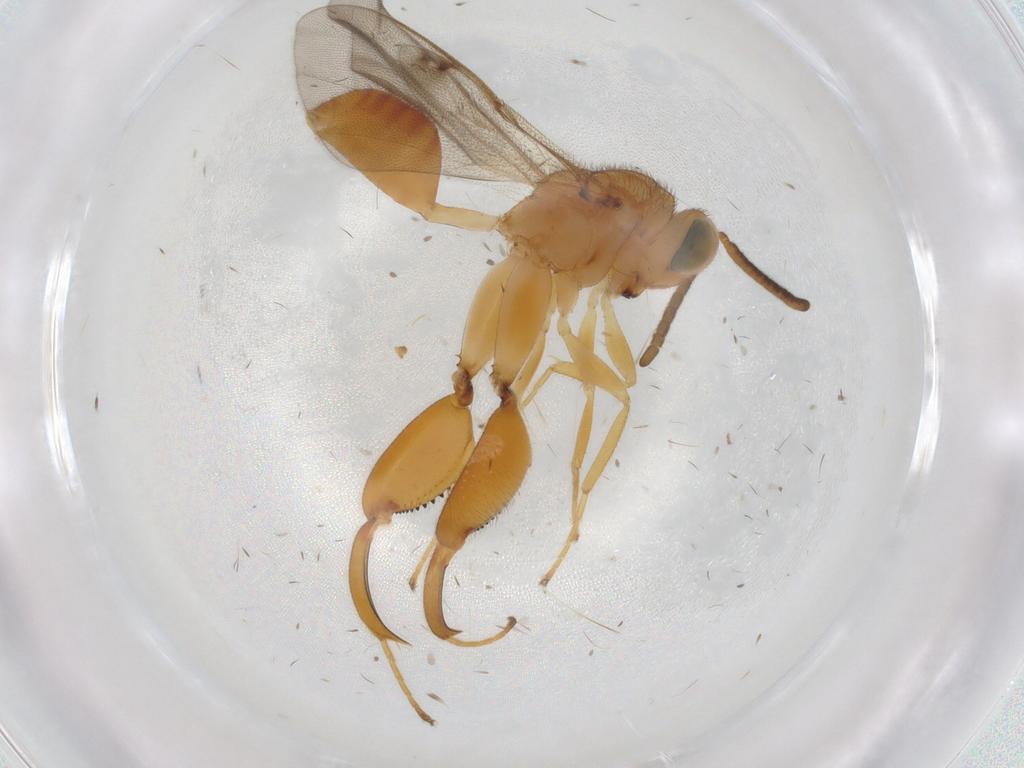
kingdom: Animalia
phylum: Arthropoda
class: Insecta
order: Hymenoptera
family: Chalcididae
